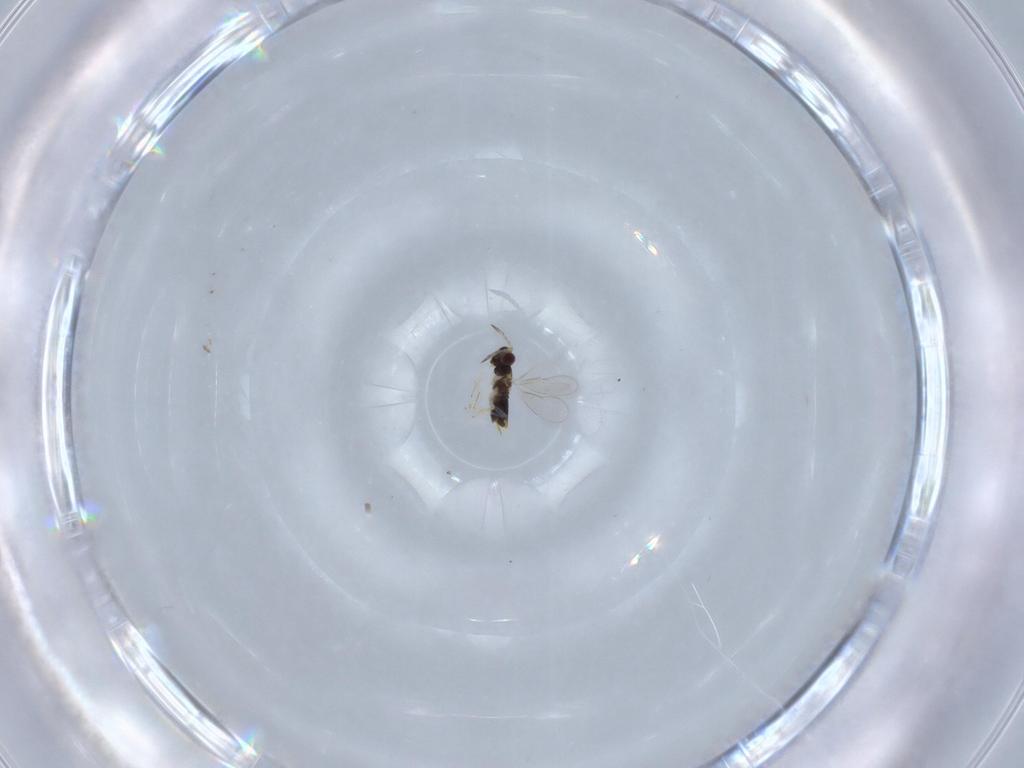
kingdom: Animalia
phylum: Arthropoda
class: Insecta
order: Hymenoptera
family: Aphelinidae
